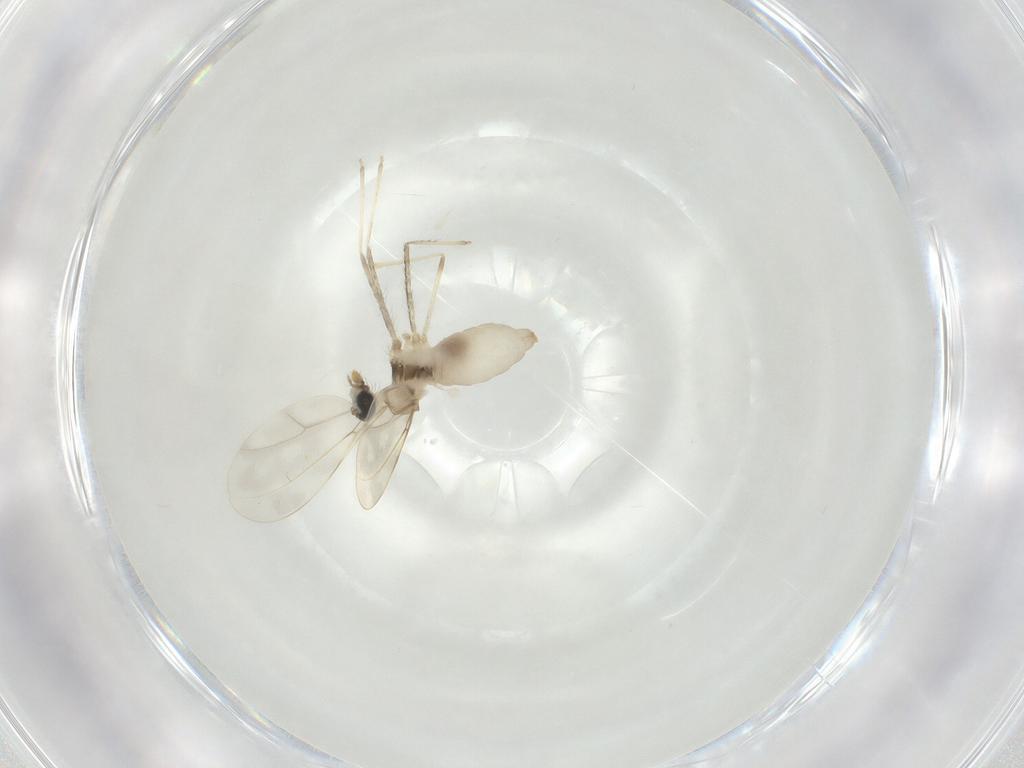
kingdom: Animalia
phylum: Arthropoda
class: Insecta
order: Diptera
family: Cecidomyiidae
